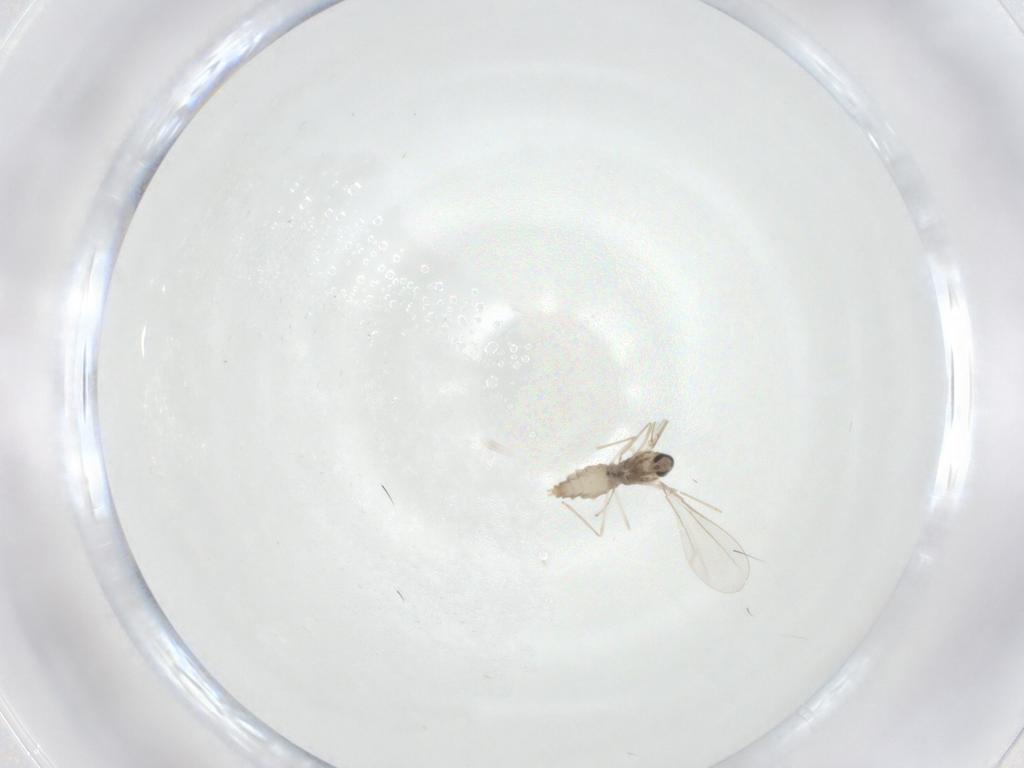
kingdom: Animalia
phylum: Arthropoda
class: Insecta
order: Diptera
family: Cecidomyiidae
